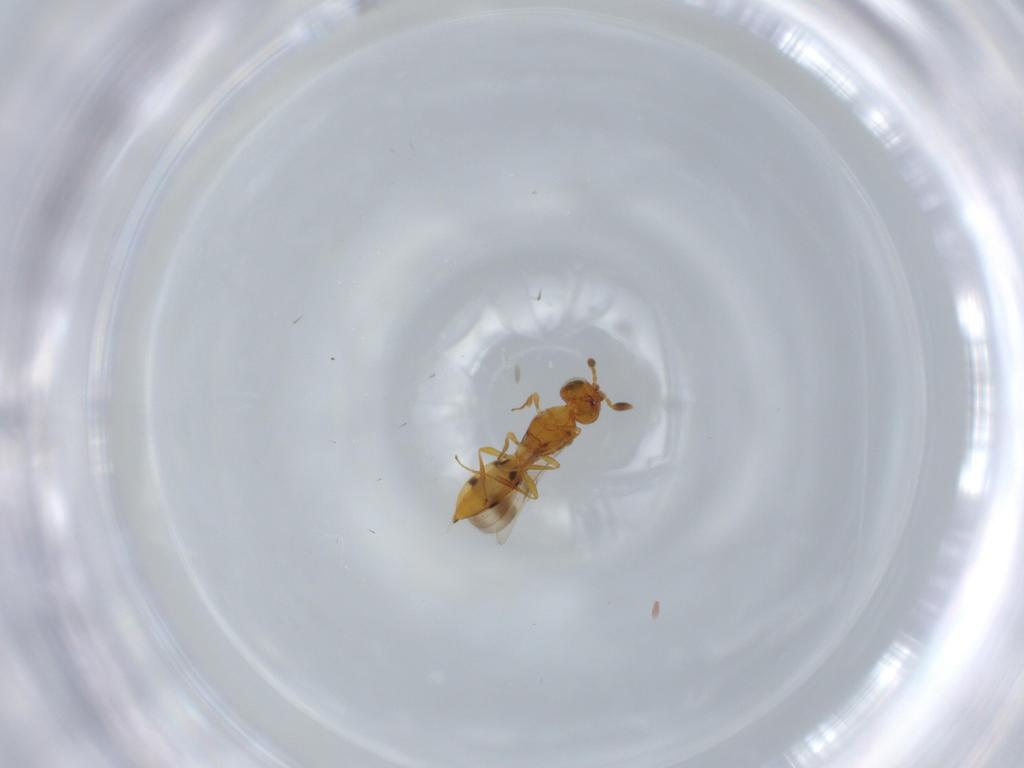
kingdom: Animalia
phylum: Arthropoda
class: Insecta
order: Hymenoptera
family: Scelionidae
